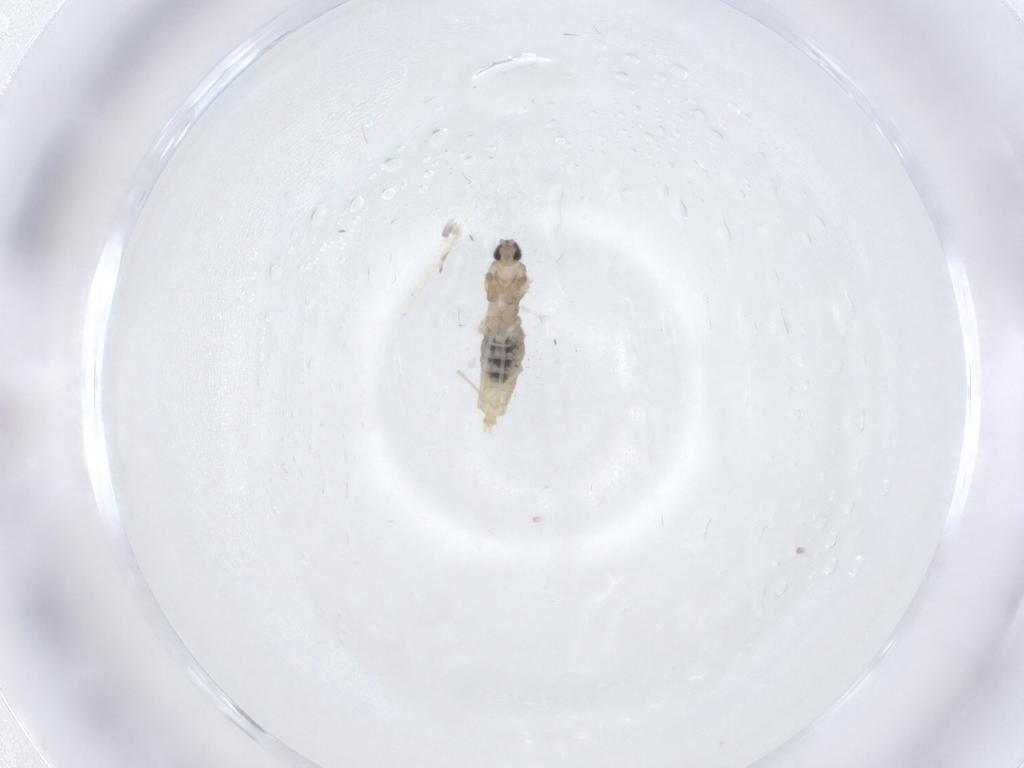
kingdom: Animalia
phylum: Arthropoda
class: Insecta
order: Diptera
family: Cecidomyiidae
